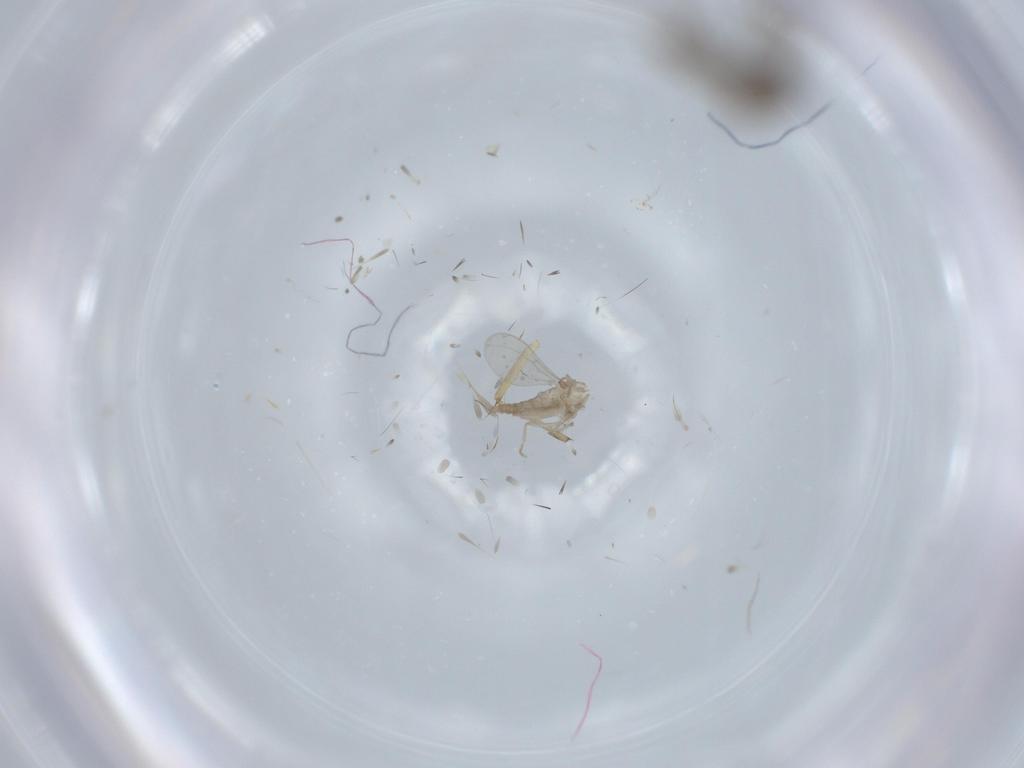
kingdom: Animalia
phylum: Arthropoda
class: Insecta
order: Diptera
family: Cecidomyiidae
